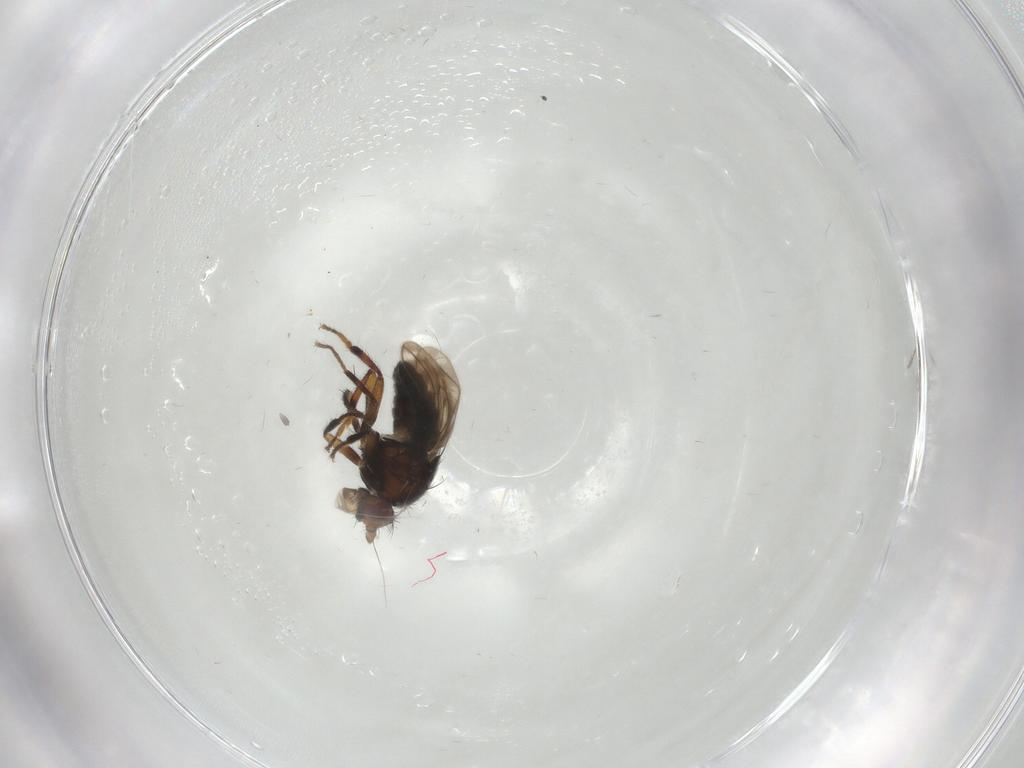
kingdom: Animalia
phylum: Arthropoda
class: Insecta
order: Diptera
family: Sphaeroceridae
